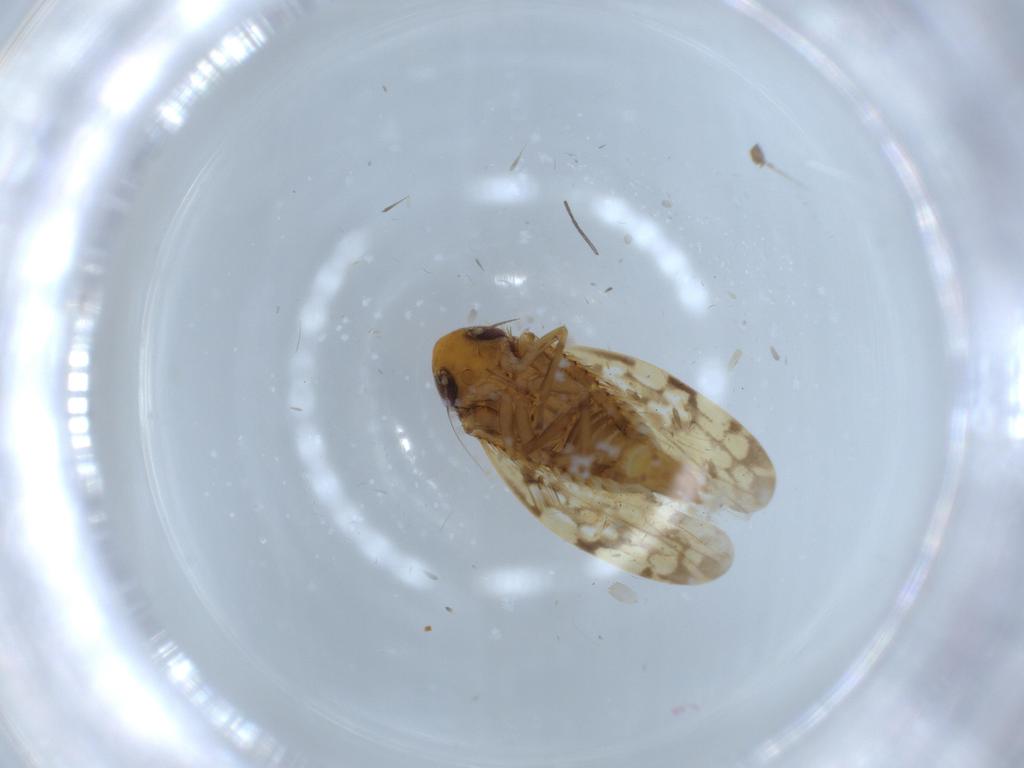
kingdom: Animalia
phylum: Arthropoda
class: Insecta
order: Hemiptera
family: Cicadellidae
